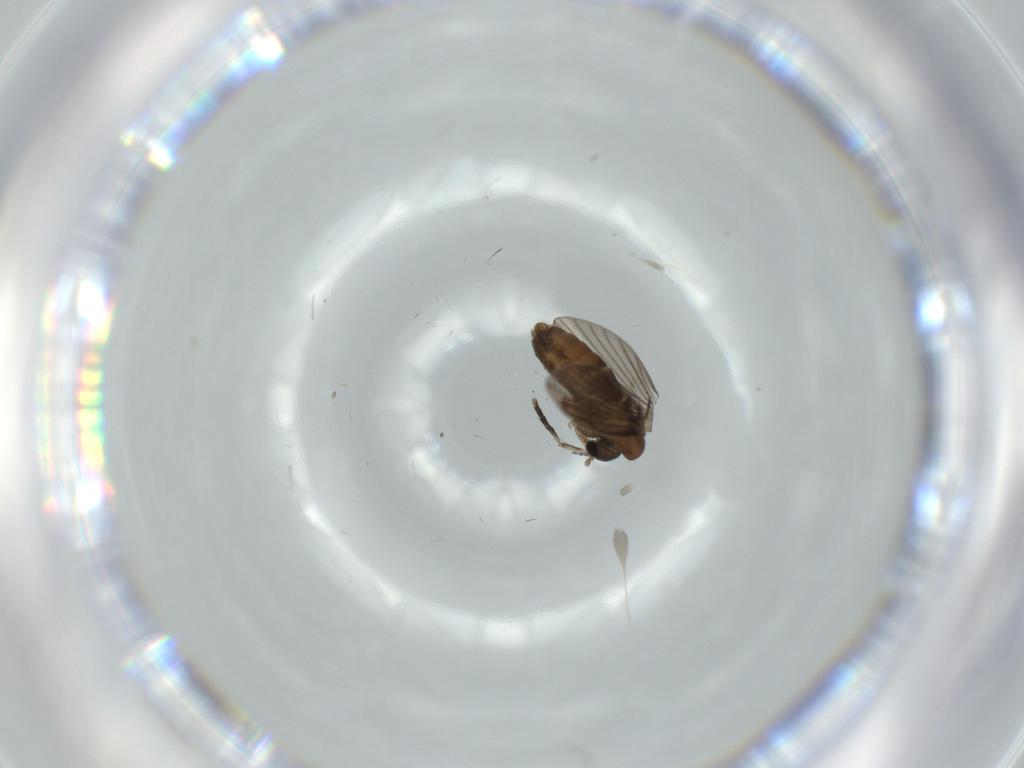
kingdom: Animalia
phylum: Arthropoda
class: Insecta
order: Diptera
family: Psychodidae
